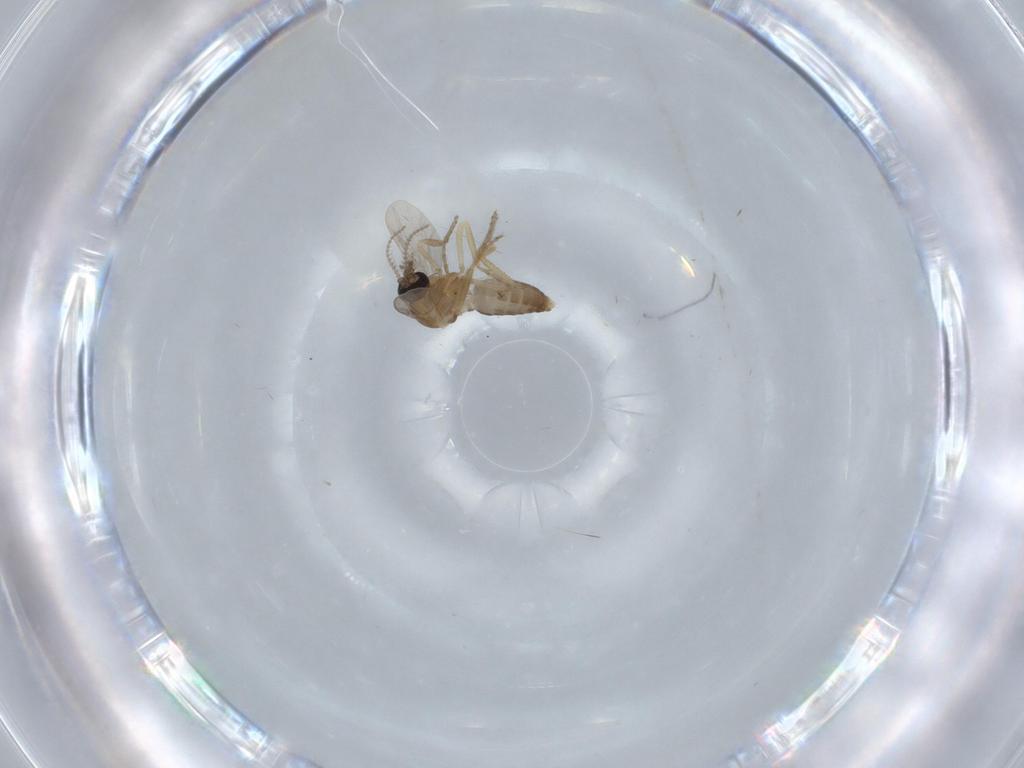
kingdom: Animalia
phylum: Arthropoda
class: Insecta
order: Diptera
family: Ceratopogonidae
